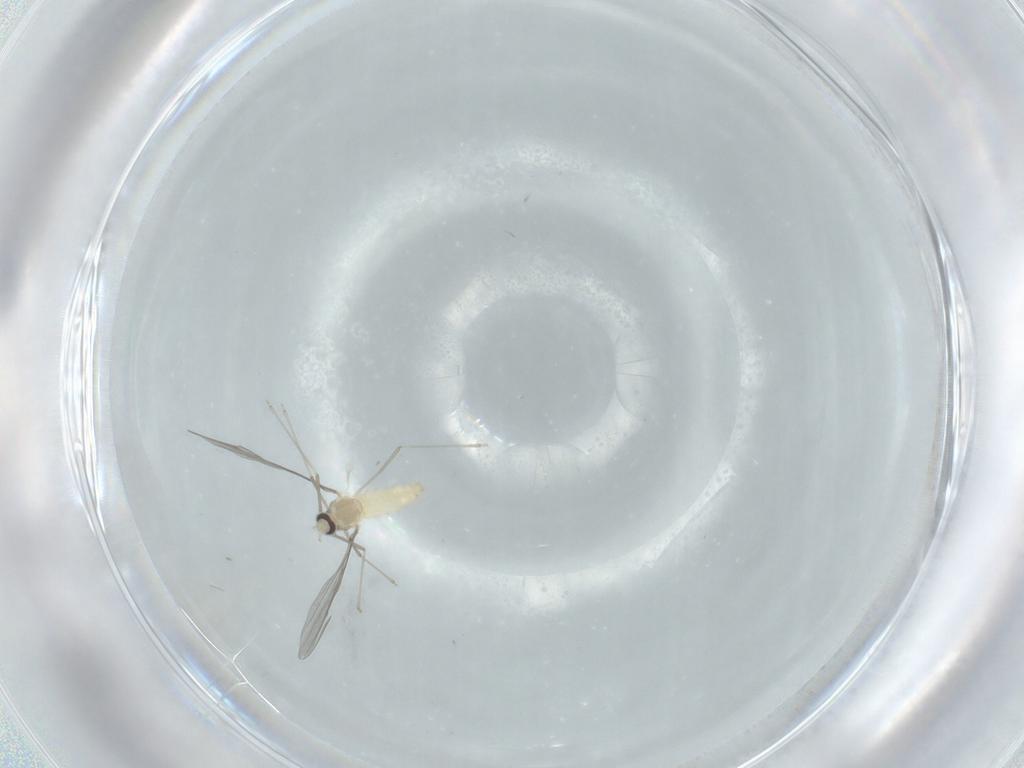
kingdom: Animalia
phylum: Arthropoda
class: Insecta
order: Diptera
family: Cecidomyiidae
